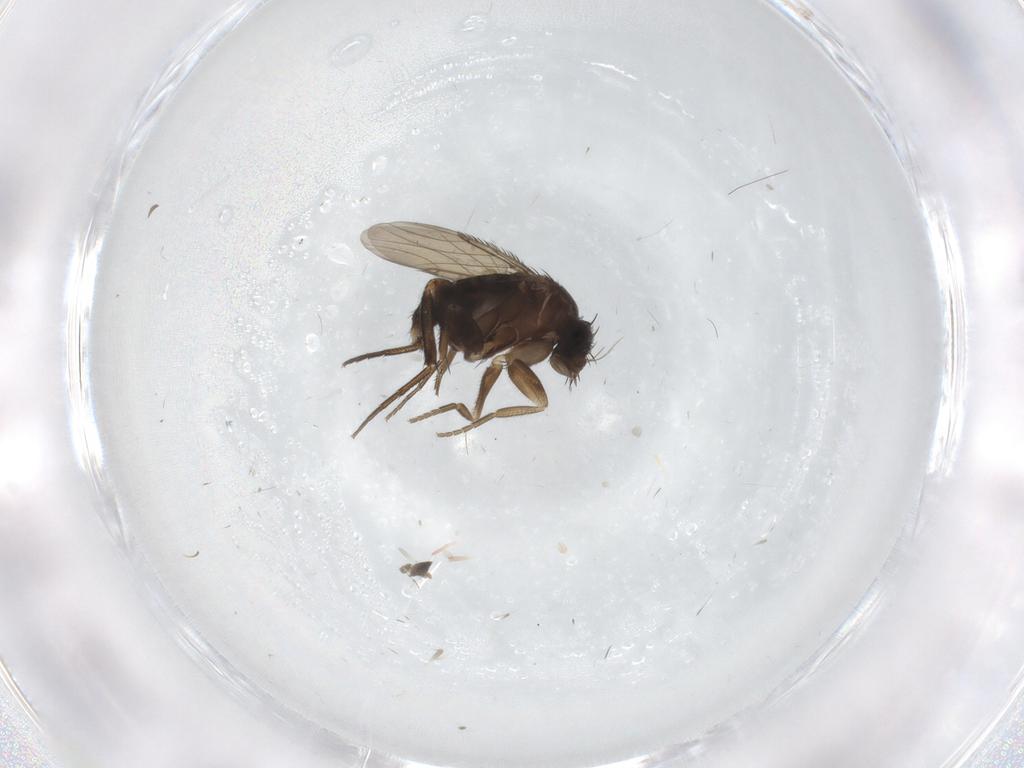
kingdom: Animalia
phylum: Arthropoda
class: Insecta
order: Diptera
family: Phoridae
